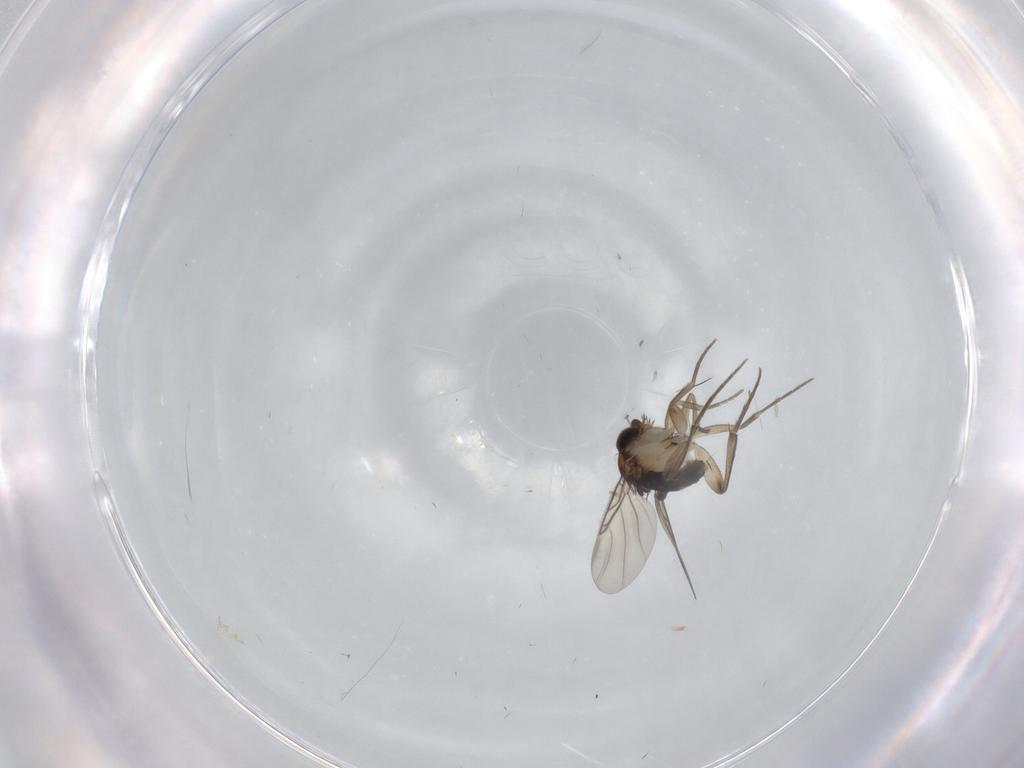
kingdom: Animalia
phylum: Arthropoda
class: Insecta
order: Diptera
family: Phoridae
